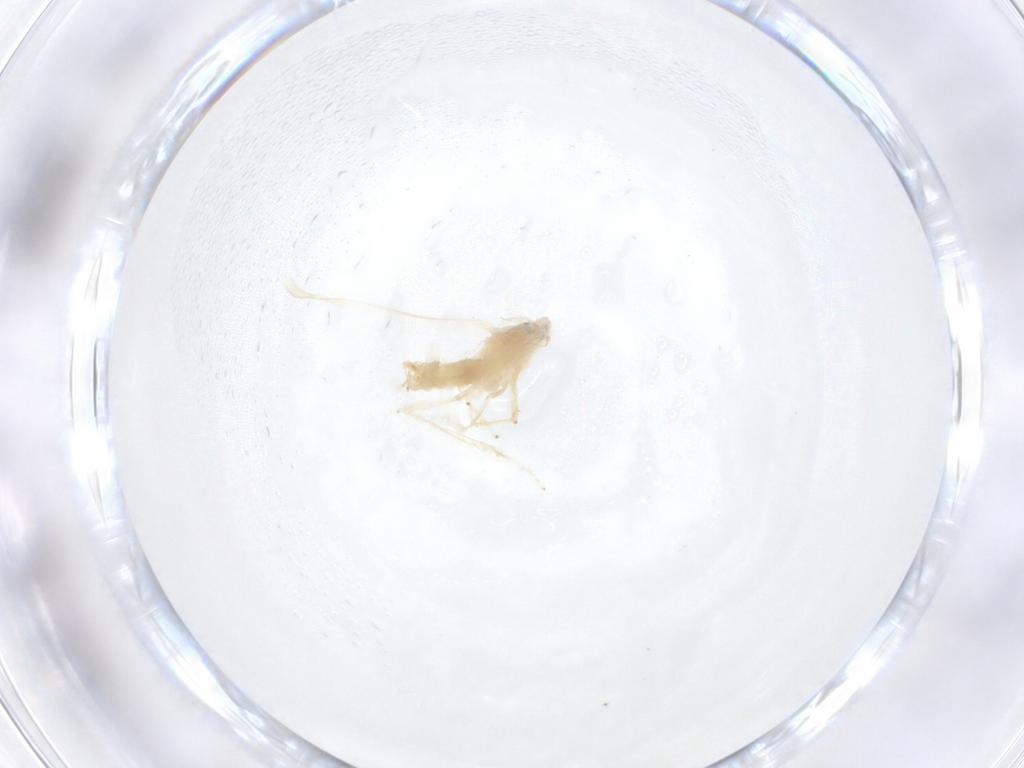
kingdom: Animalia
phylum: Arthropoda
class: Insecta
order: Hemiptera
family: Cicadellidae
